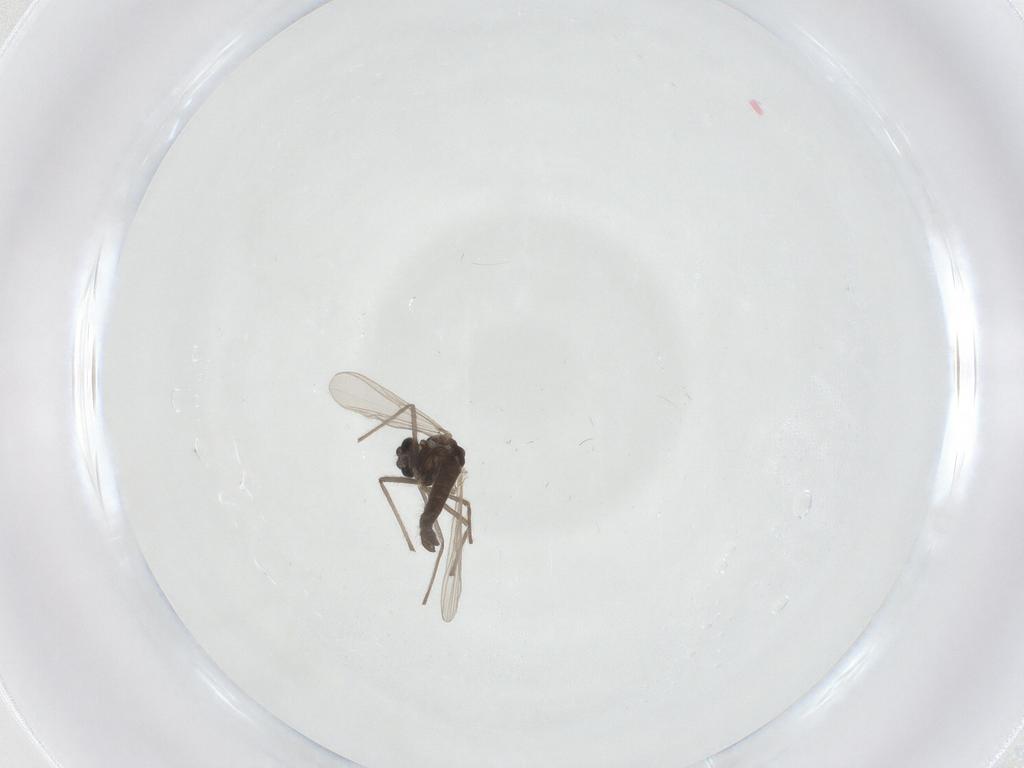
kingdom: Animalia
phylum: Arthropoda
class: Insecta
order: Diptera
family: Chironomidae
